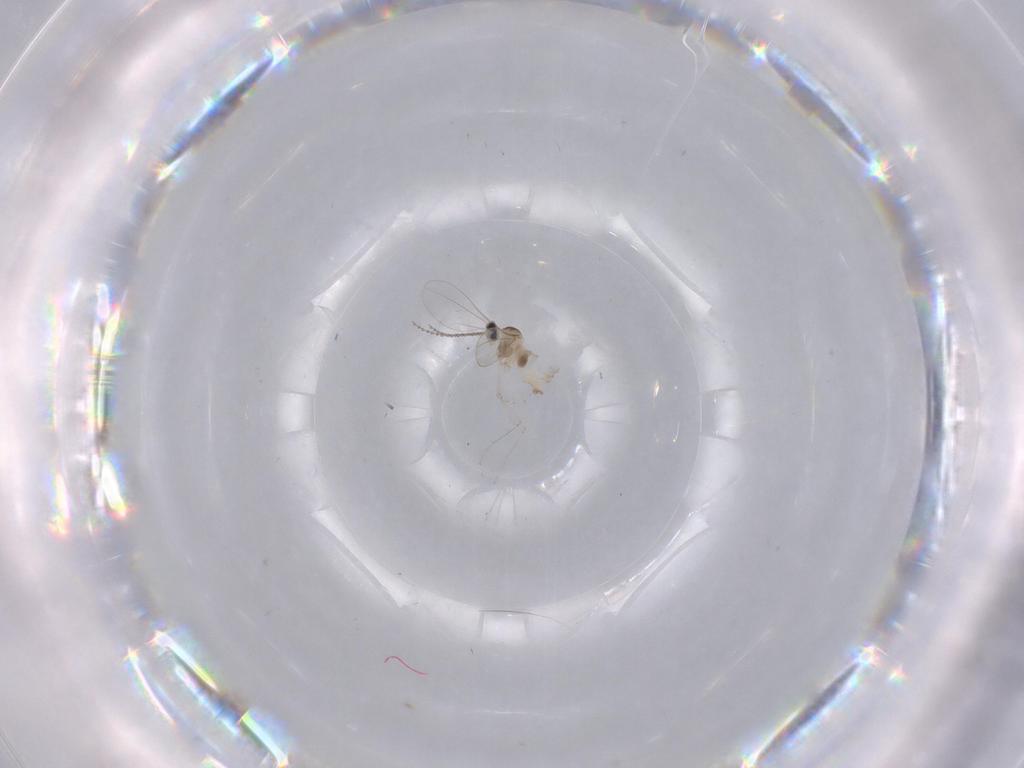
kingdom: Animalia
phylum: Arthropoda
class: Insecta
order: Diptera
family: Cecidomyiidae
